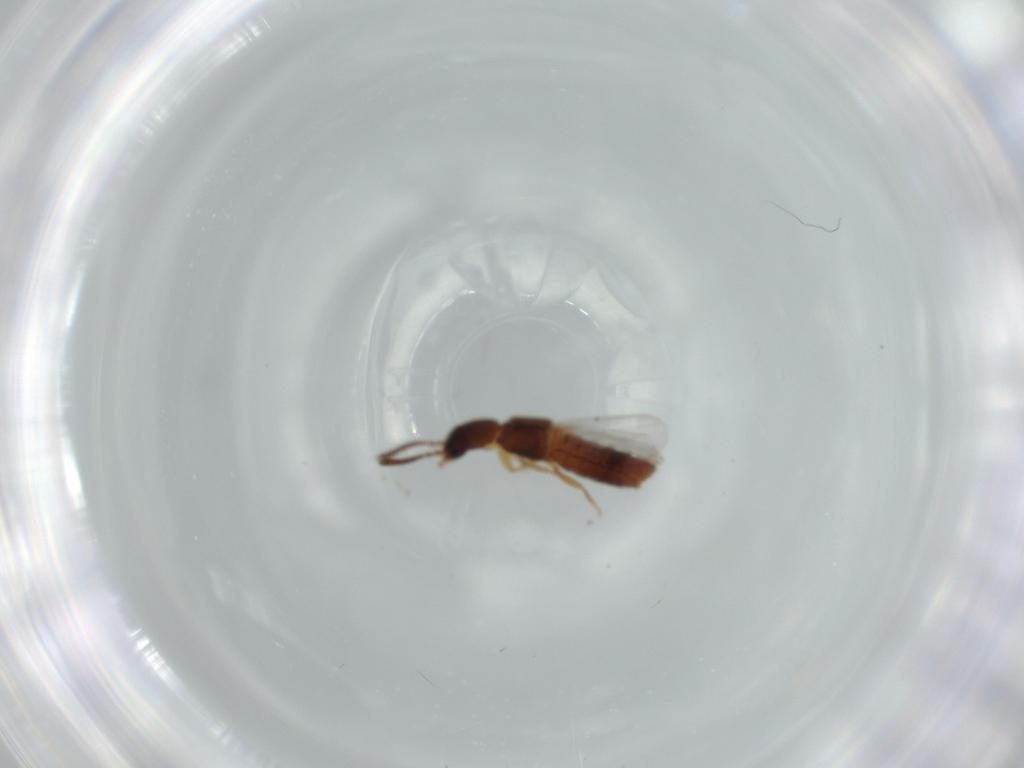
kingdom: Animalia
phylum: Arthropoda
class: Insecta
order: Coleoptera
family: Staphylinidae
